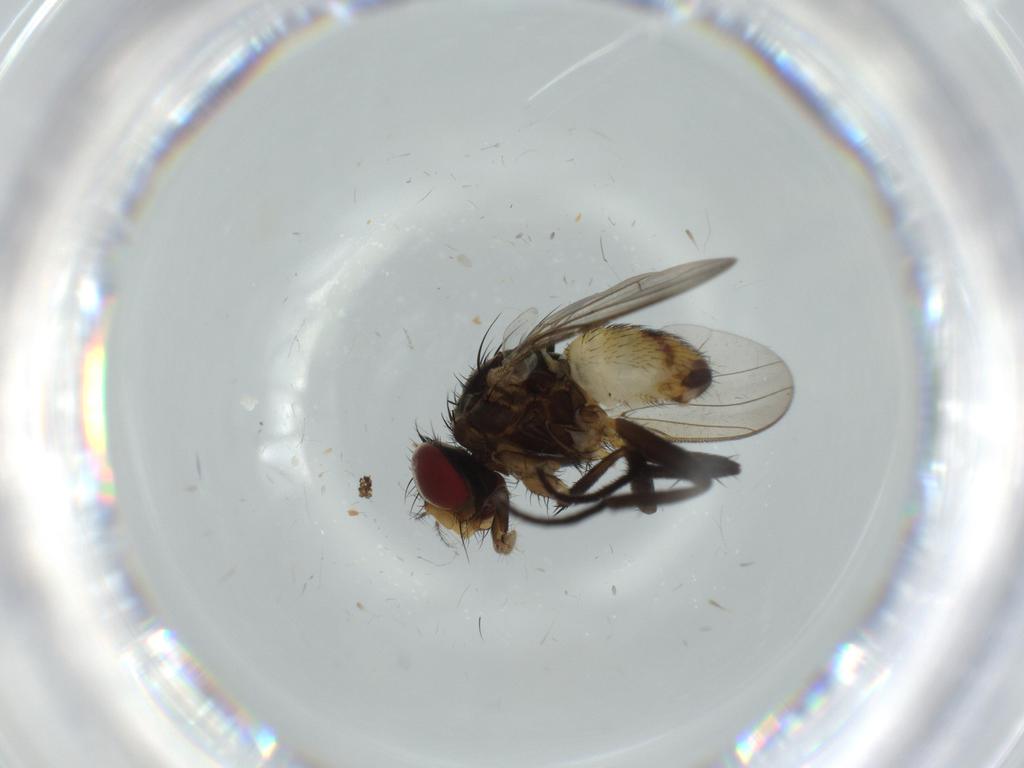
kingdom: Animalia
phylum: Arthropoda
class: Insecta
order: Diptera
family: Anthomyiidae
